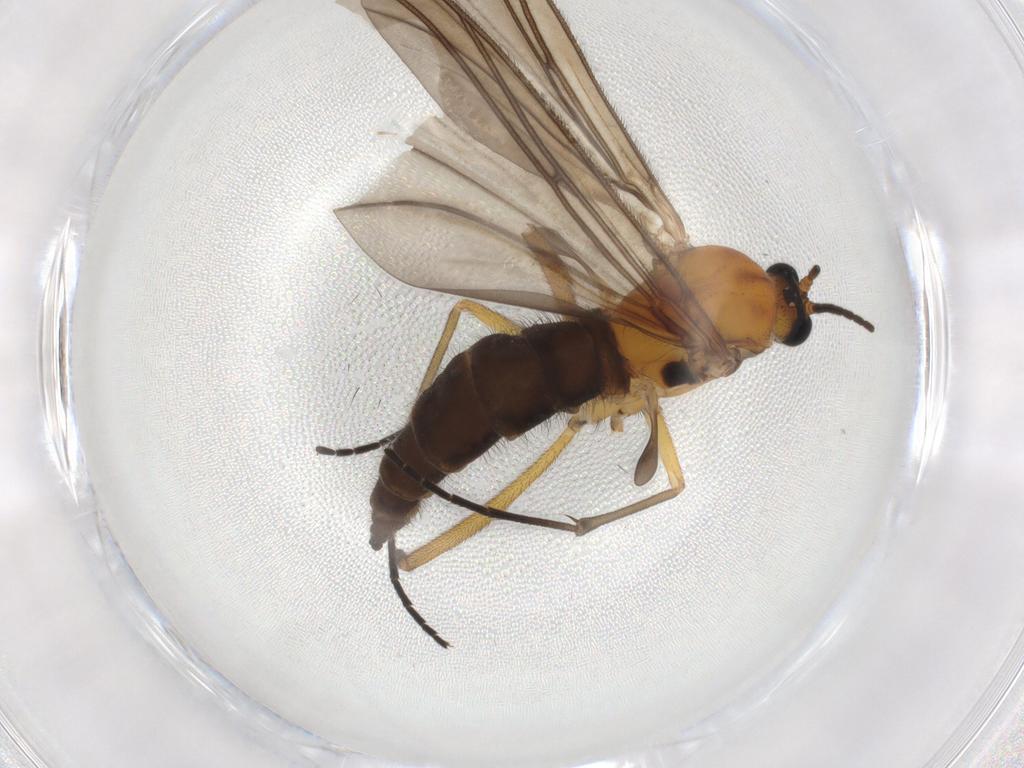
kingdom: Animalia
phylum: Arthropoda
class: Insecta
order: Diptera
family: Sciaridae
